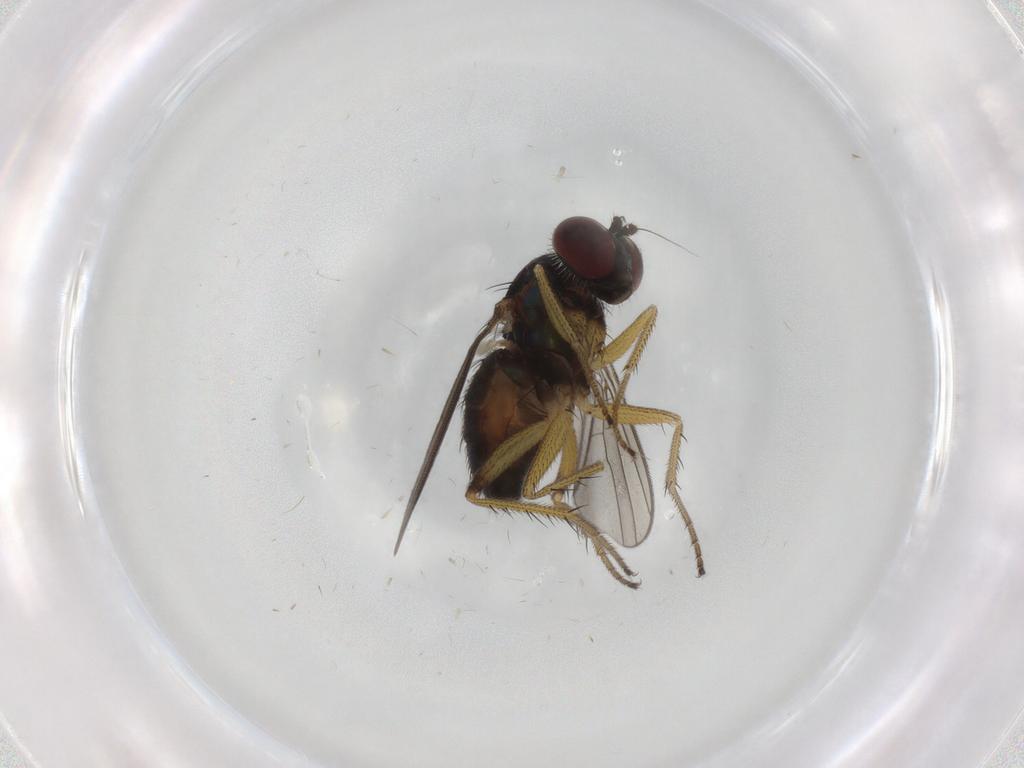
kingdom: Animalia
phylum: Arthropoda
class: Insecta
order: Diptera
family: Dolichopodidae
